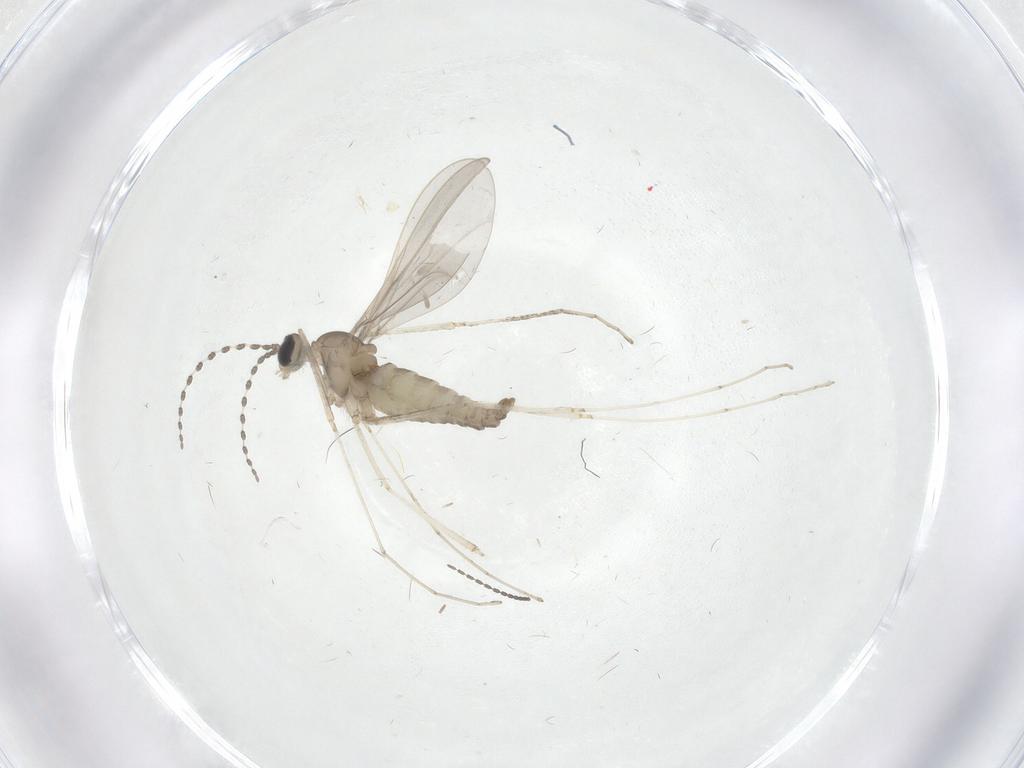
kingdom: Animalia
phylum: Arthropoda
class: Insecta
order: Diptera
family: Cecidomyiidae
